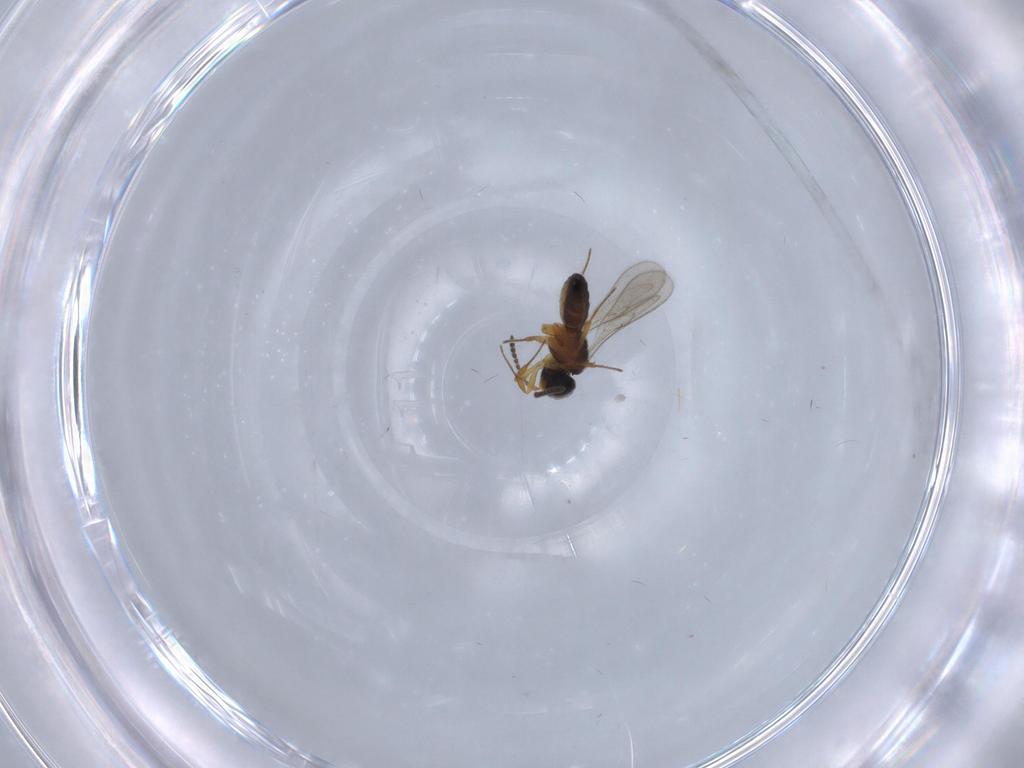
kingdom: Animalia
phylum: Arthropoda
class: Insecta
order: Hymenoptera
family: Scelionidae
